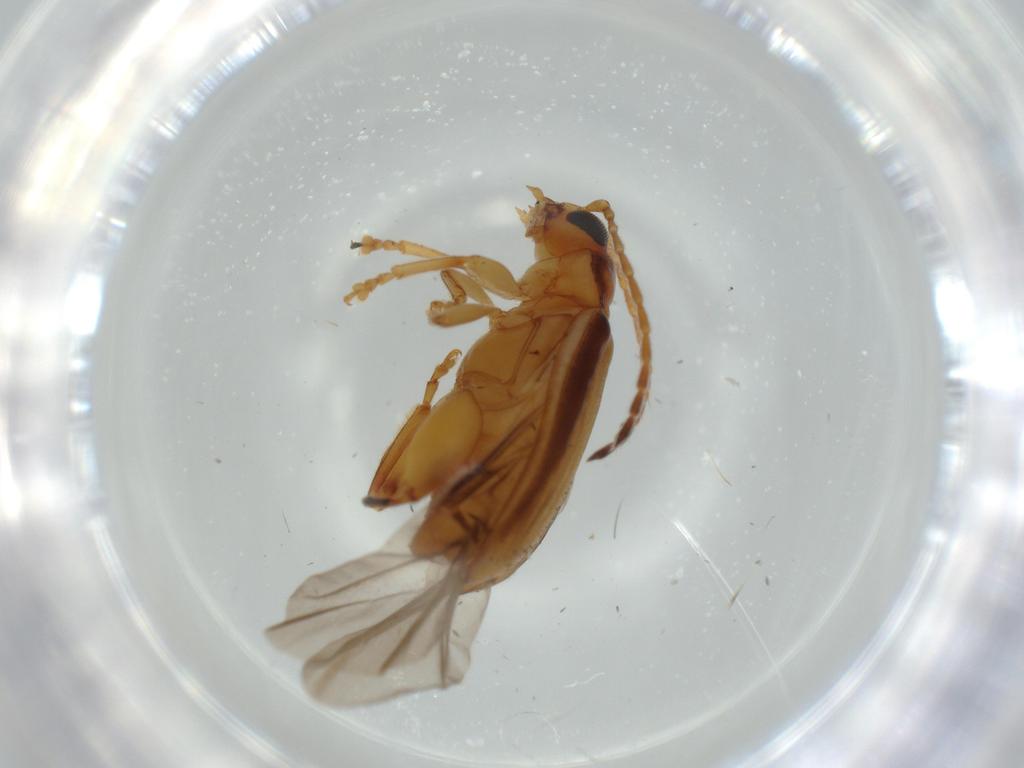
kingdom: Animalia
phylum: Arthropoda
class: Insecta
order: Coleoptera
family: Chrysomelidae
